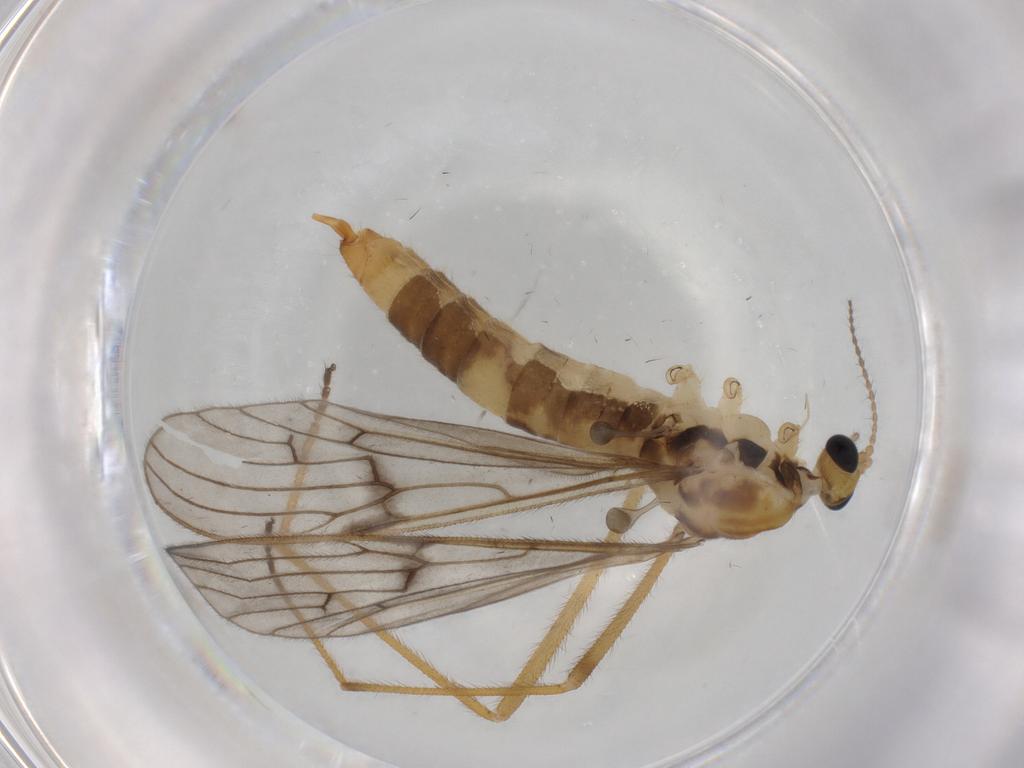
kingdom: Animalia
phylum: Arthropoda
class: Insecta
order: Diptera
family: Limoniidae
